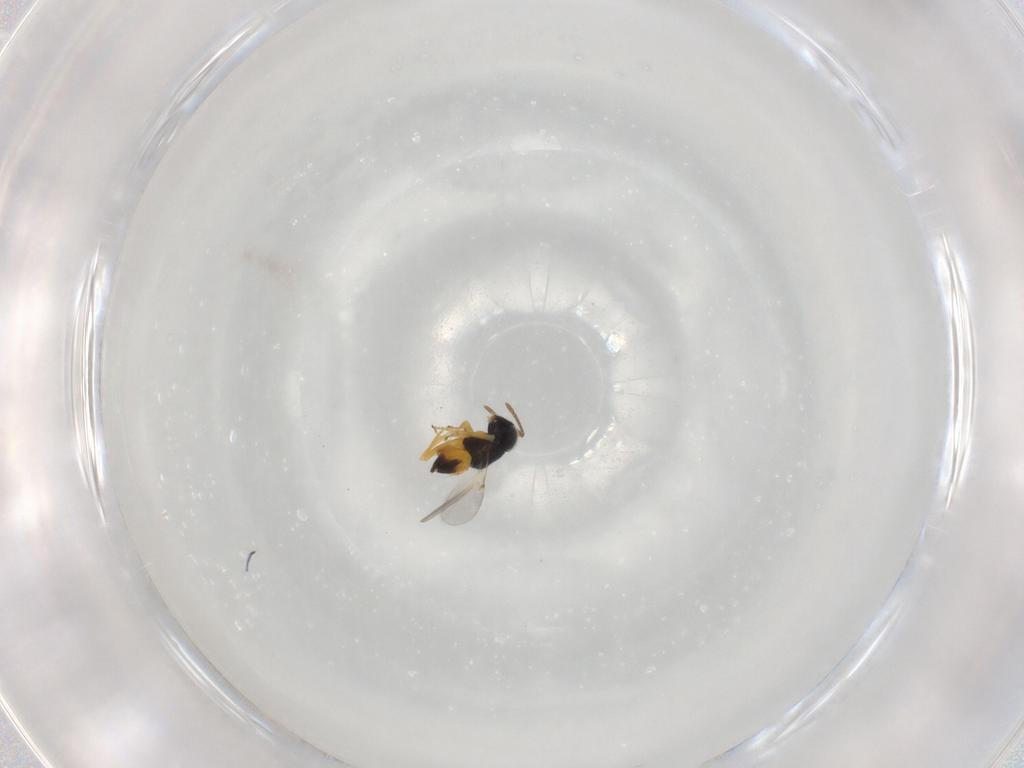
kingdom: Animalia
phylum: Arthropoda
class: Insecta
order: Hymenoptera
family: Encyrtidae
